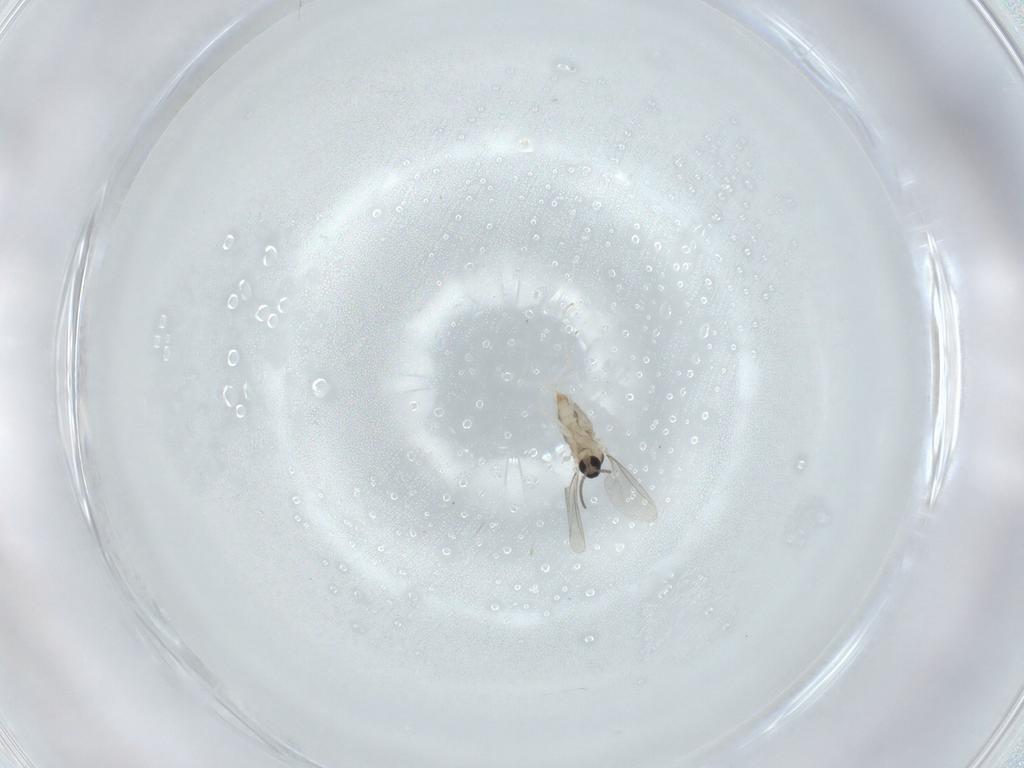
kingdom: Animalia
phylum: Arthropoda
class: Insecta
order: Diptera
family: Cecidomyiidae
